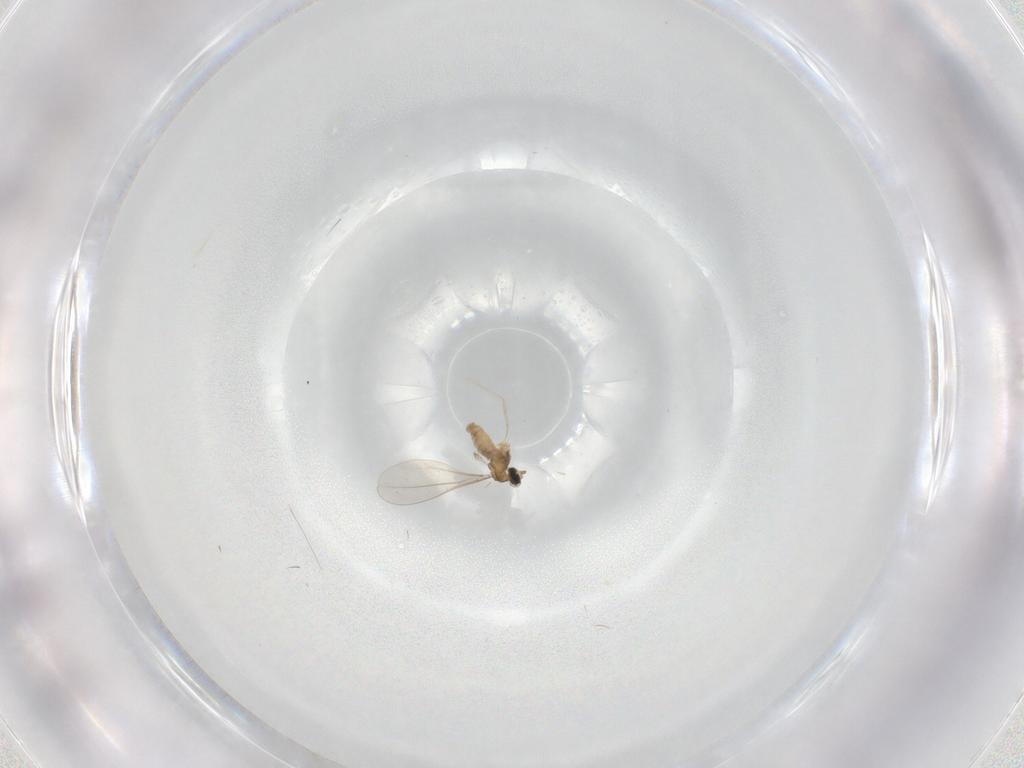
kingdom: Animalia
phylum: Arthropoda
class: Insecta
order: Diptera
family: Cecidomyiidae
